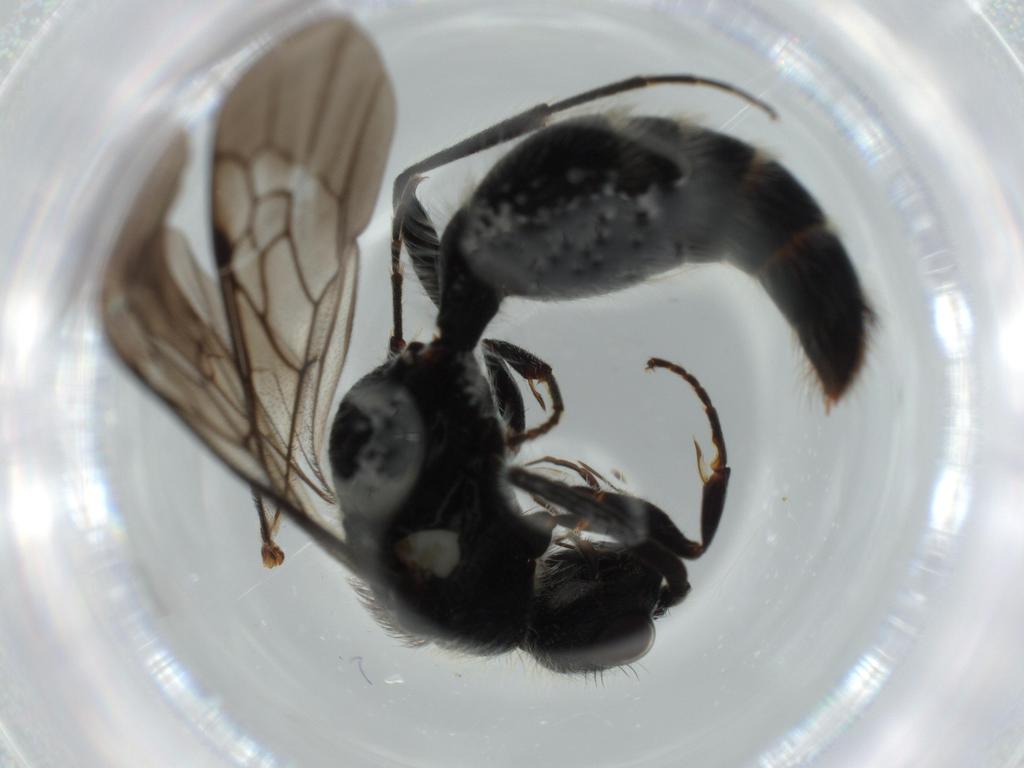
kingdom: Animalia
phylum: Arthropoda
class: Insecta
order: Hymenoptera
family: Mutillidae
